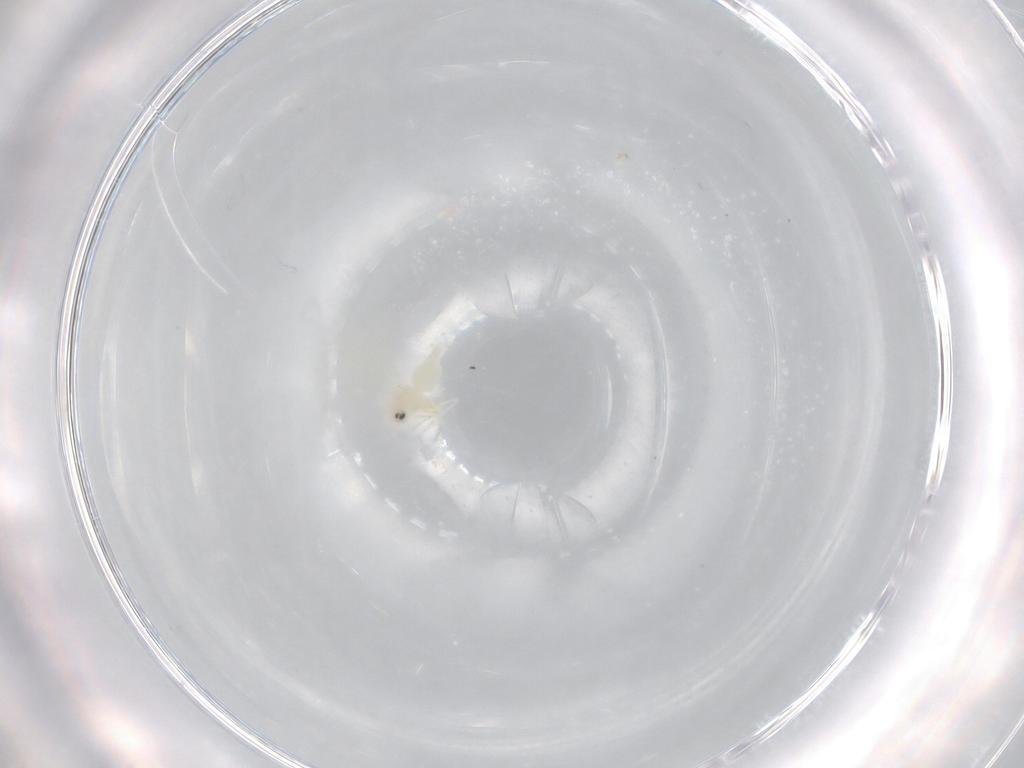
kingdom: Animalia
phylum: Arthropoda
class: Insecta
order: Hemiptera
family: Aleyrodidae
